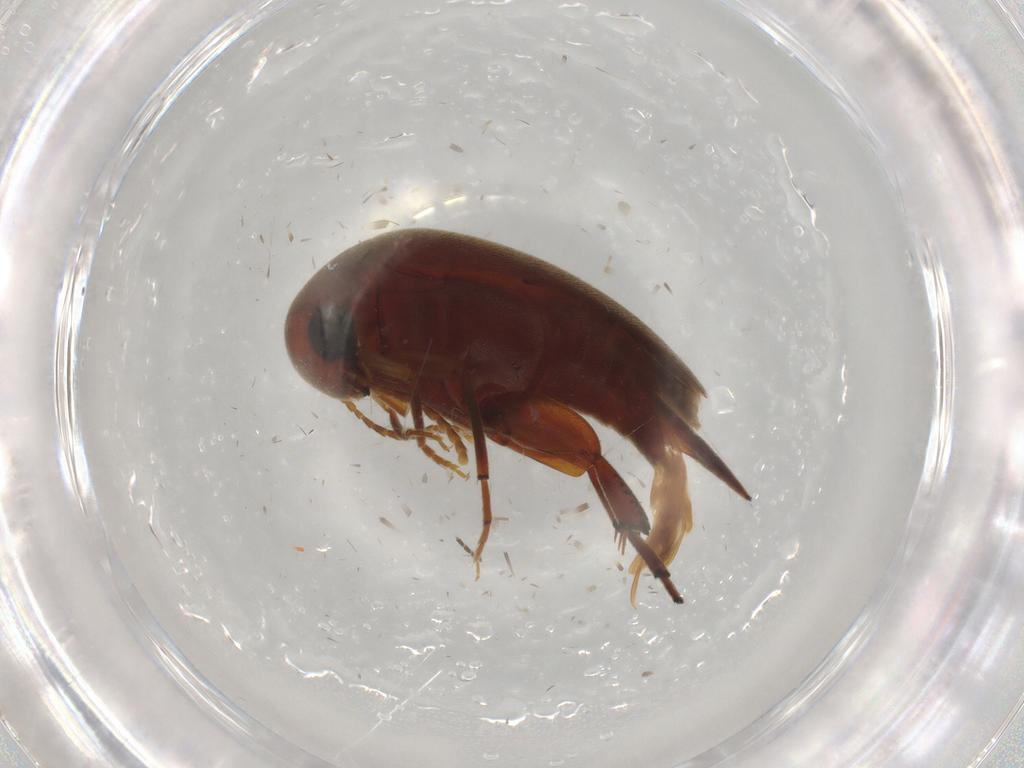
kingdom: Animalia
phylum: Arthropoda
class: Insecta
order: Coleoptera
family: Mordellidae
